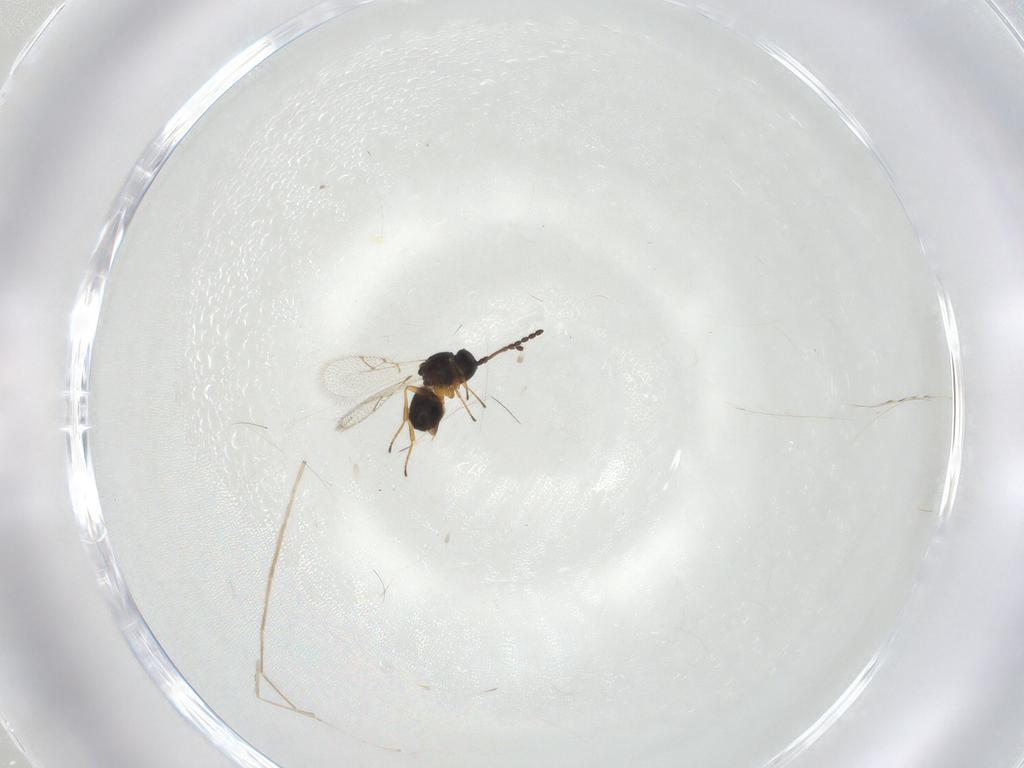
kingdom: Animalia
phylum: Arthropoda
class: Insecta
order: Hymenoptera
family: Figitidae
